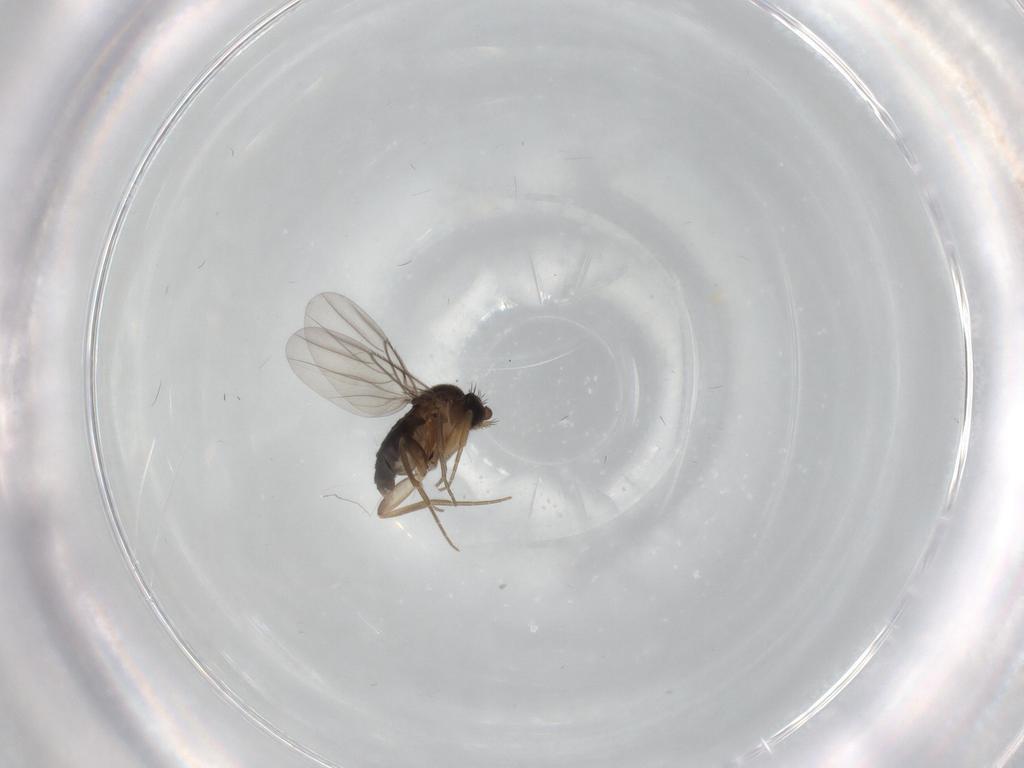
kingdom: Animalia
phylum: Arthropoda
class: Insecta
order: Diptera
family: Phoridae
